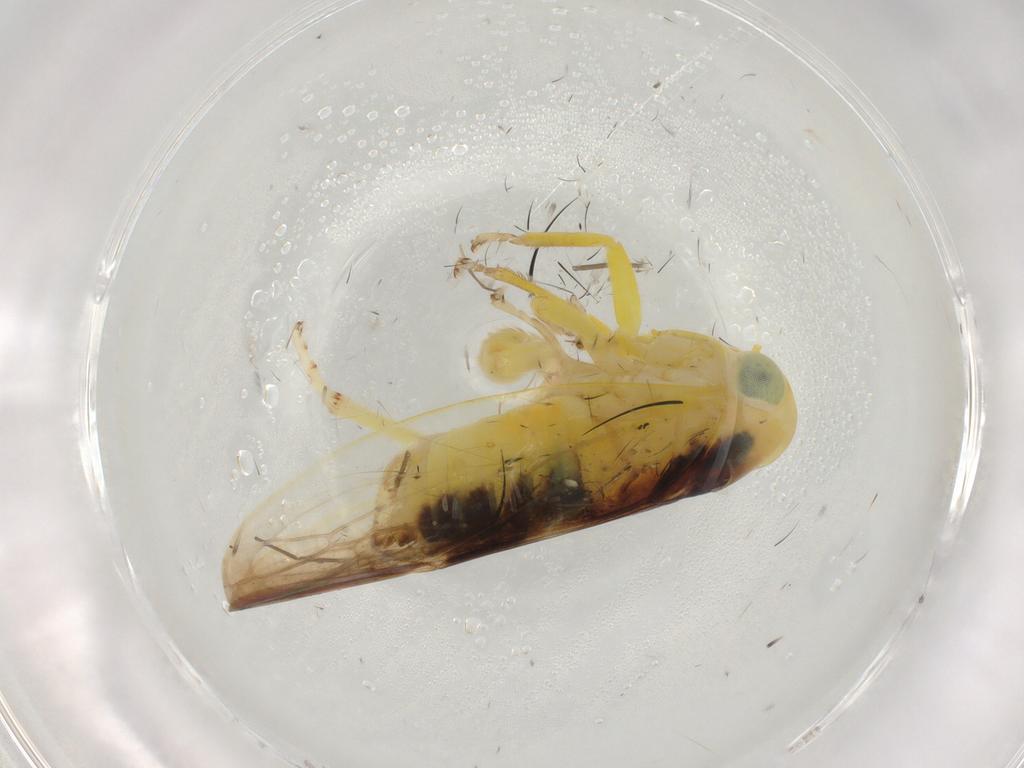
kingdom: Animalia
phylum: Arthropoda
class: Insecta
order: Hemiptera
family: Cicadellidae
